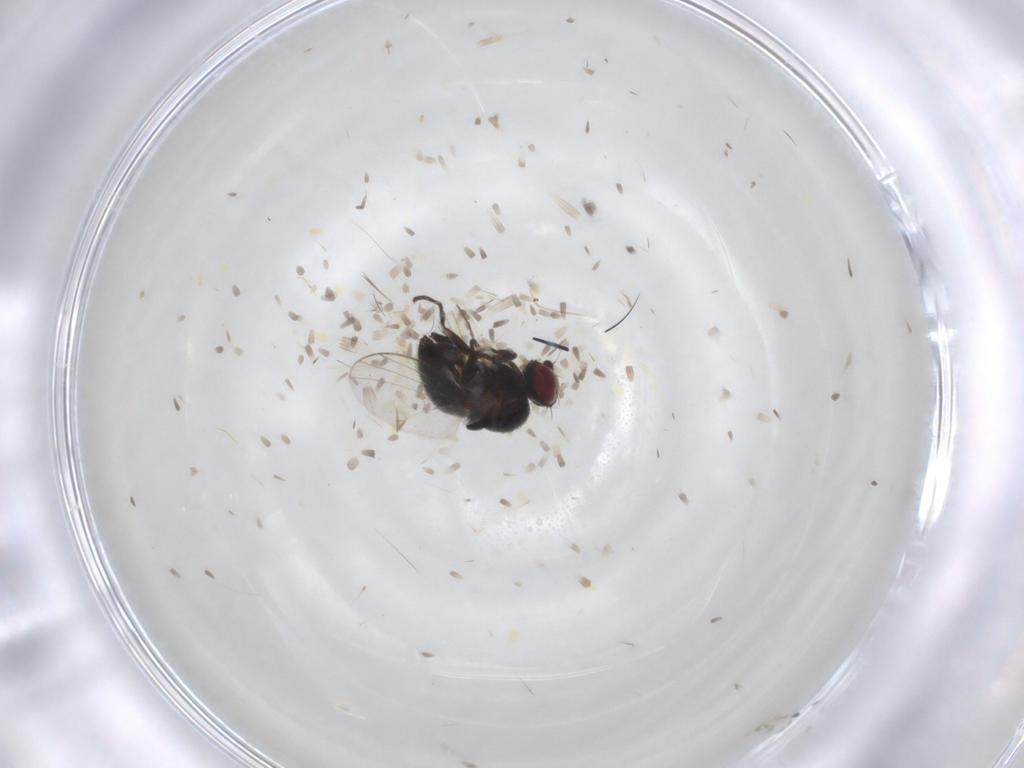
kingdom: Animalia
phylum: Arthropoda
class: Insecta
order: Diptera
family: Agromyzidae
